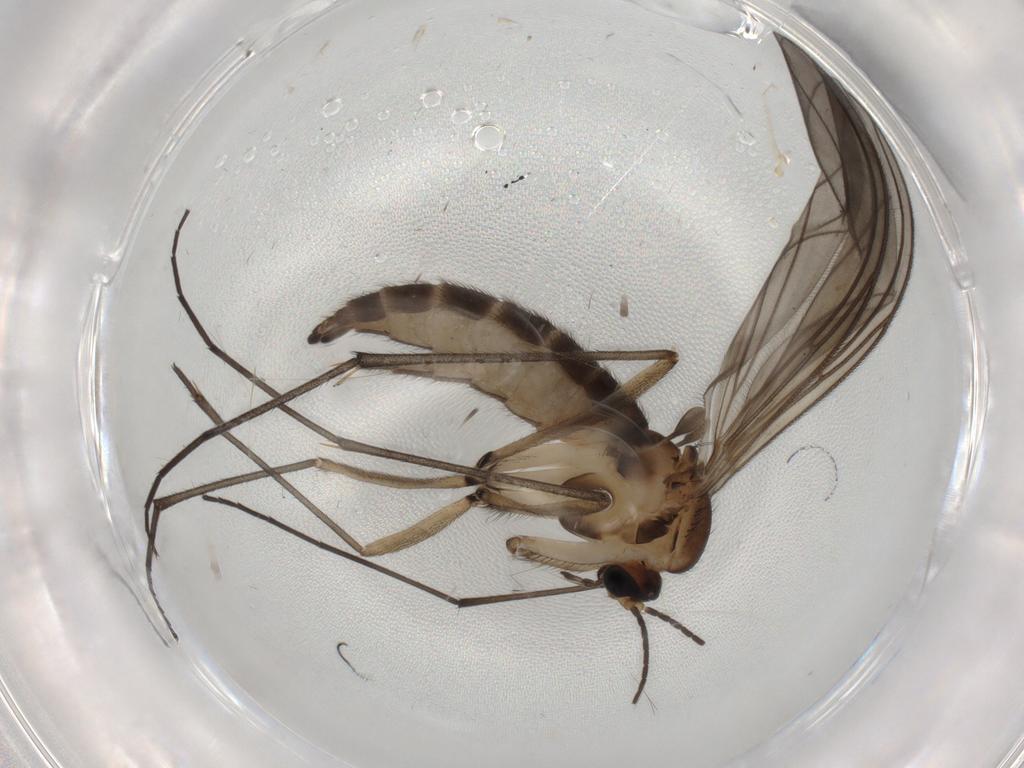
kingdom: Animalia
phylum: Arthropoda
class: Insecta
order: Diptera
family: Sciaridae
